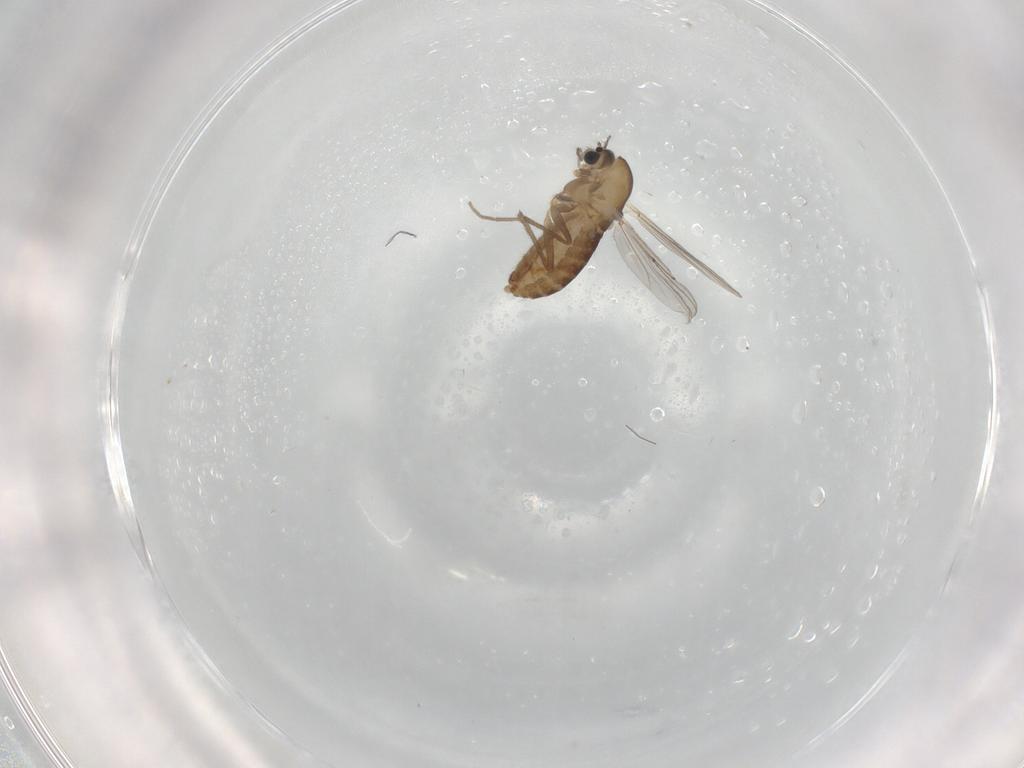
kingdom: Animalia
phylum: Arthropoda
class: Insecta
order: Diptera
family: Chironomidae
